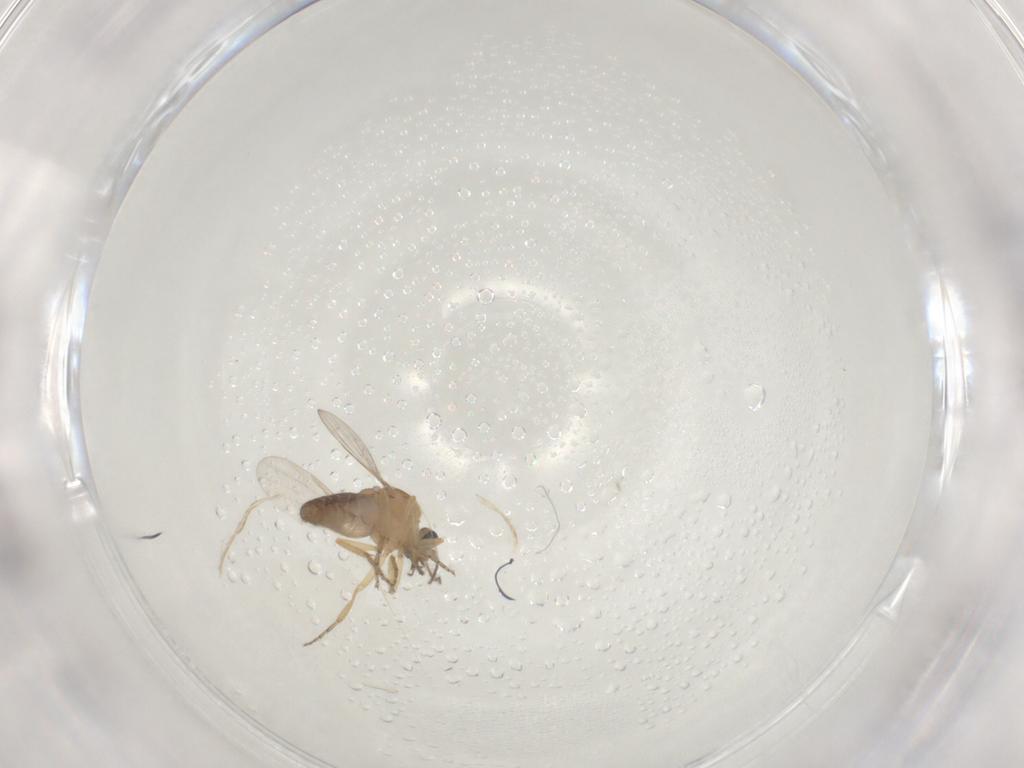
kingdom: Animalia
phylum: Arthropoda
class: Insecta
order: Diptera
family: Ceratopogonidae
